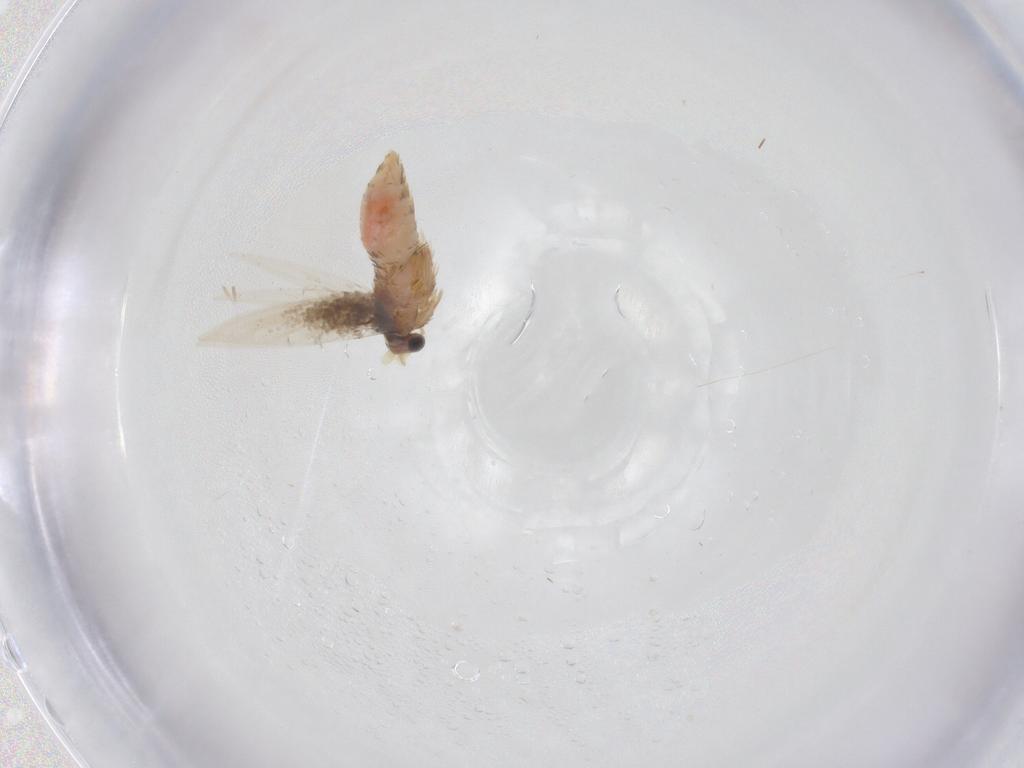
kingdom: Animalia
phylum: Arthropoda
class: Insecta
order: Lepidoptera
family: Nepticulidae
